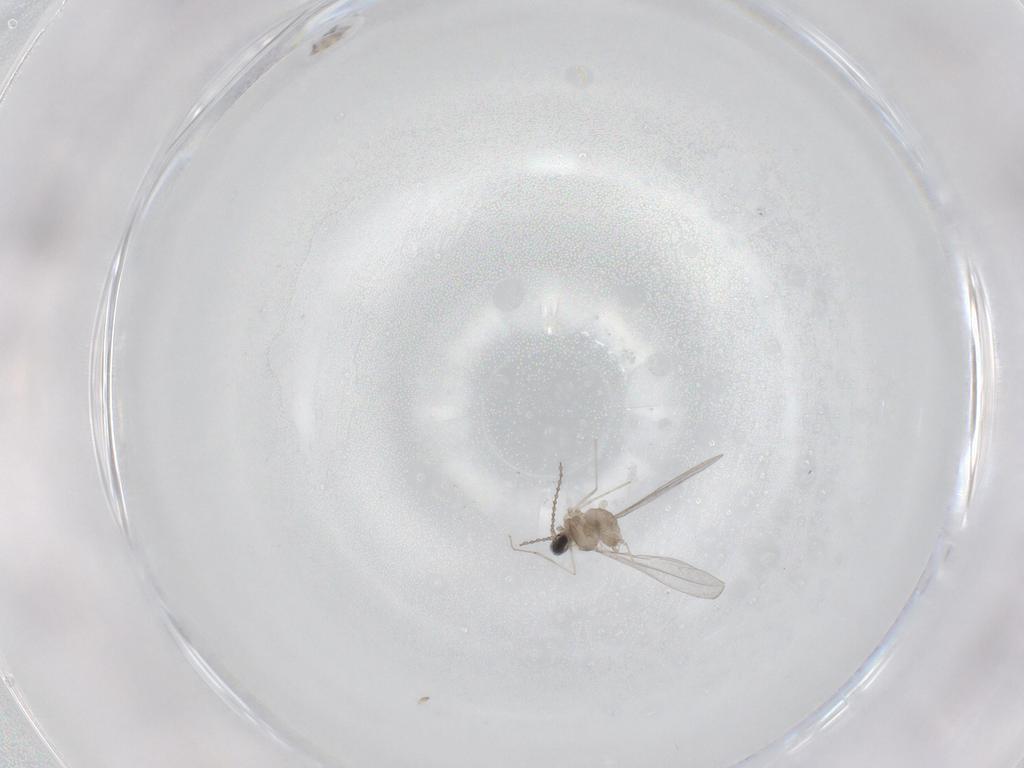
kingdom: Animalia
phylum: Arthropoda
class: Insecta
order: Diptera
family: Cecidomyiidae
